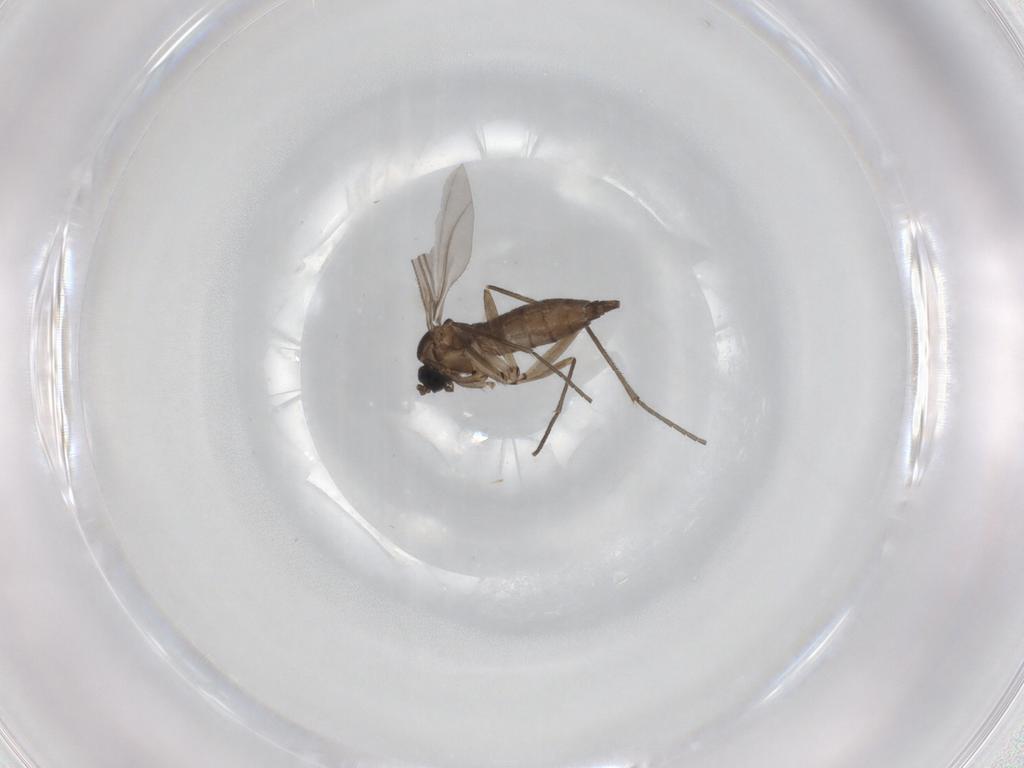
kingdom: Animalia
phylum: Arthropoda
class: Insecta
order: Diptera
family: Sciaridae
